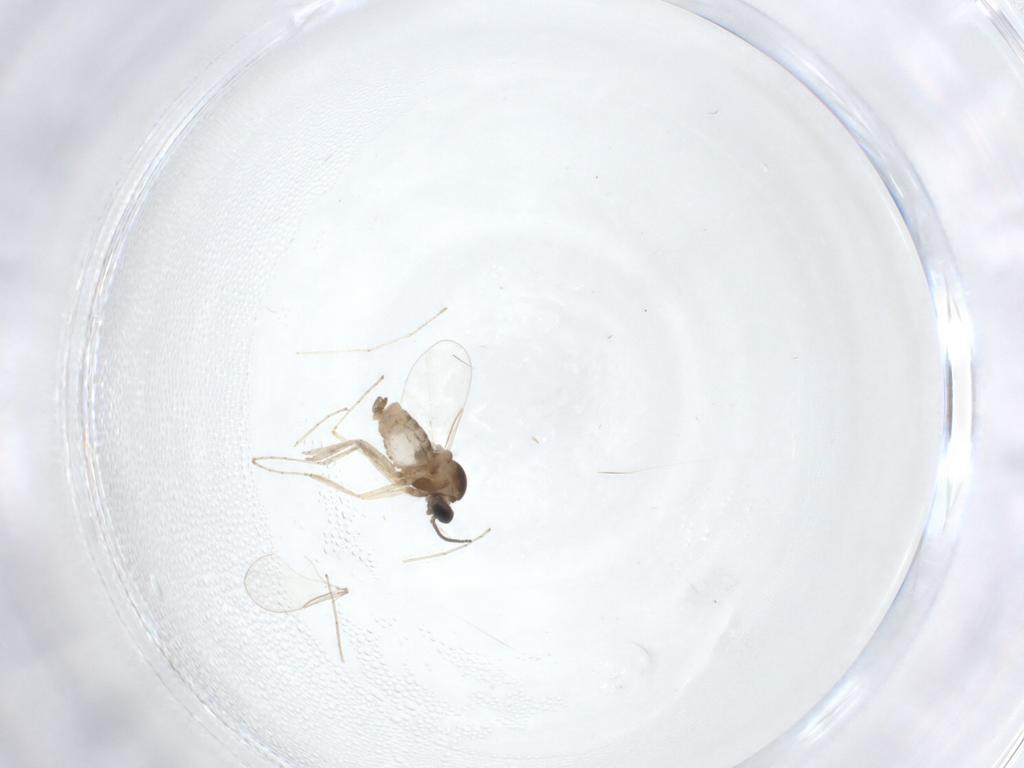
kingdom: Animalia
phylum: Arthropoda
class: Insecta
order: Diptera
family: Cecidomyiidae
